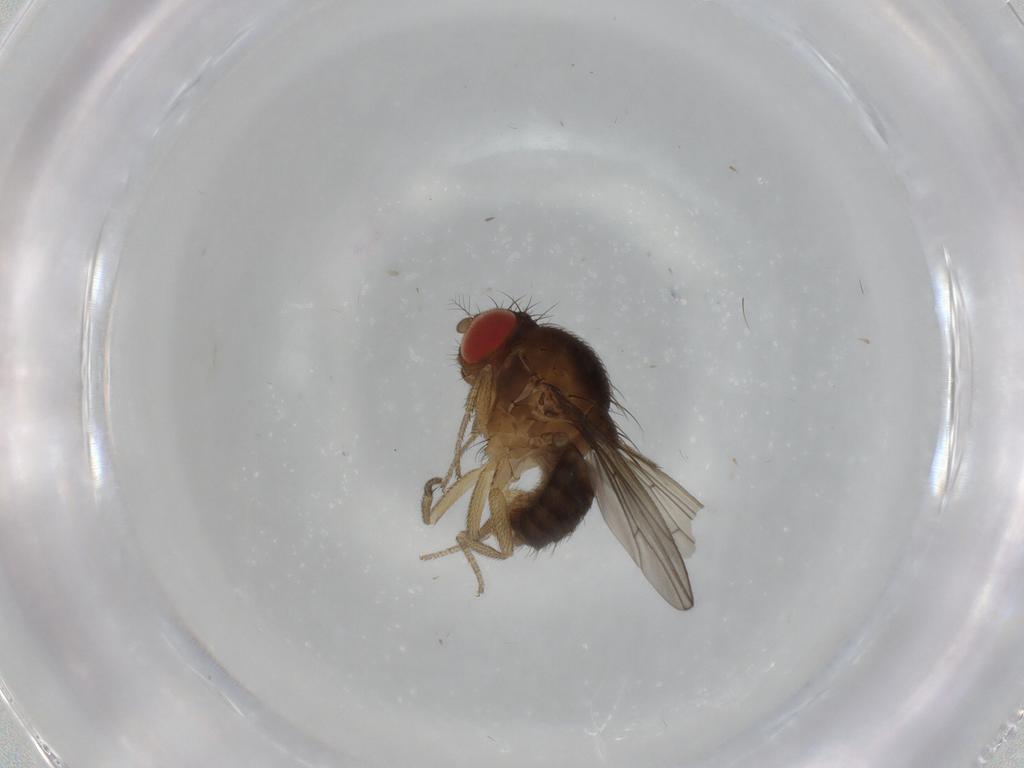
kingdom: Animalia
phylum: Arthropoda
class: Insecta
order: Diptera
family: Drosophilidae
